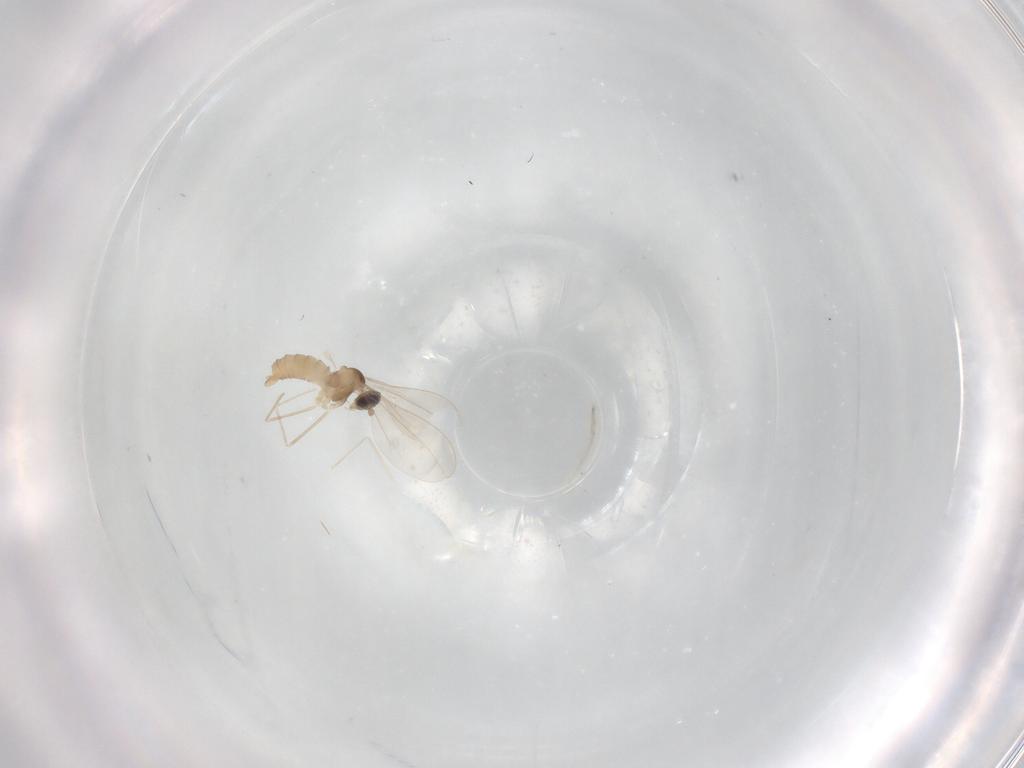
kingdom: Animalia
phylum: Arthropoda
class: Insecta
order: Diptera
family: Cecidomyiidae
